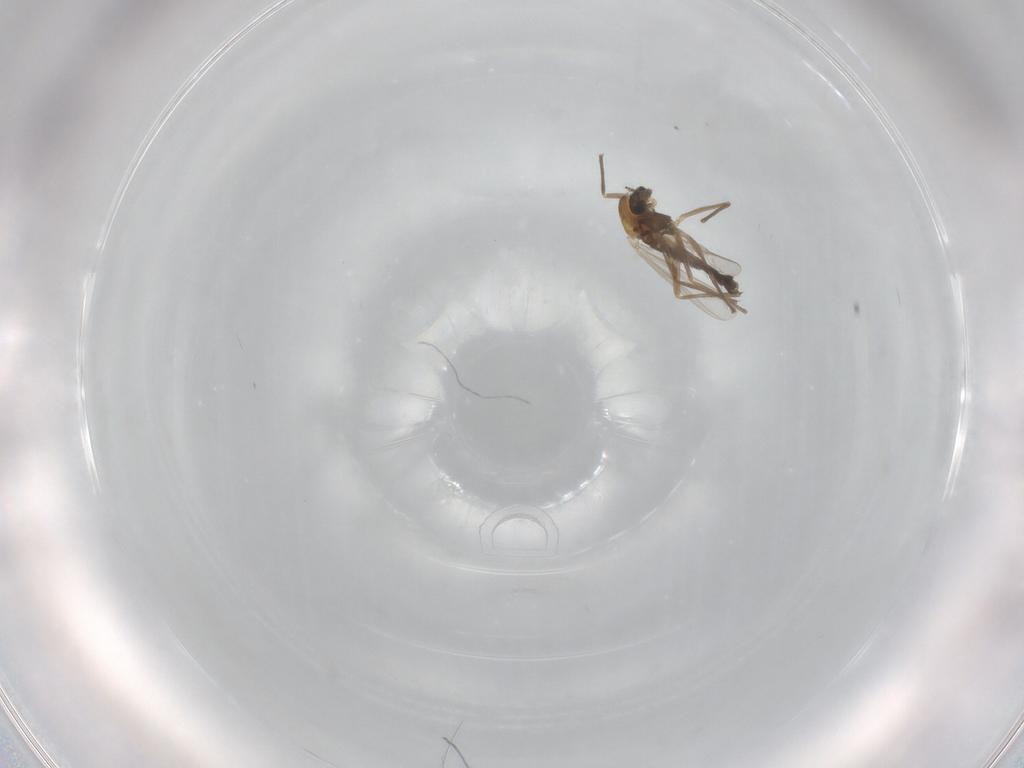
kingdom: Animalia
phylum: Arthropoda
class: Insecta
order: Diptera
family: Chironomidae
